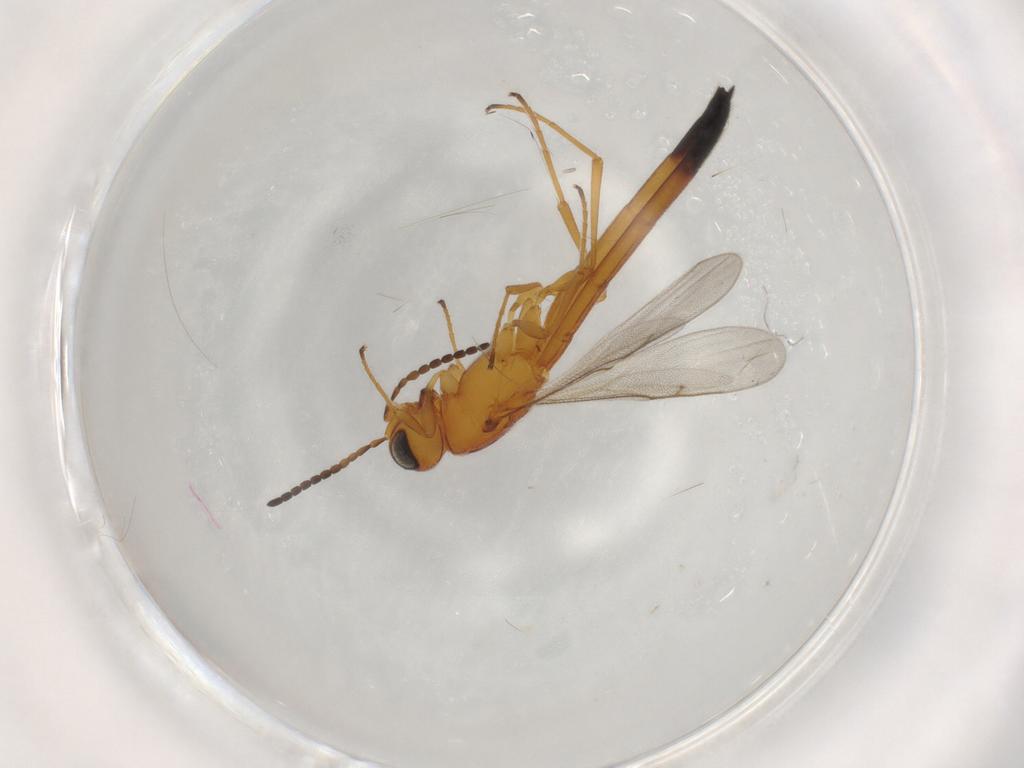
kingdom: Animalia
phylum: Arthropoda
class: Insecta
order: Hymenoptera
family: Scelionidae
